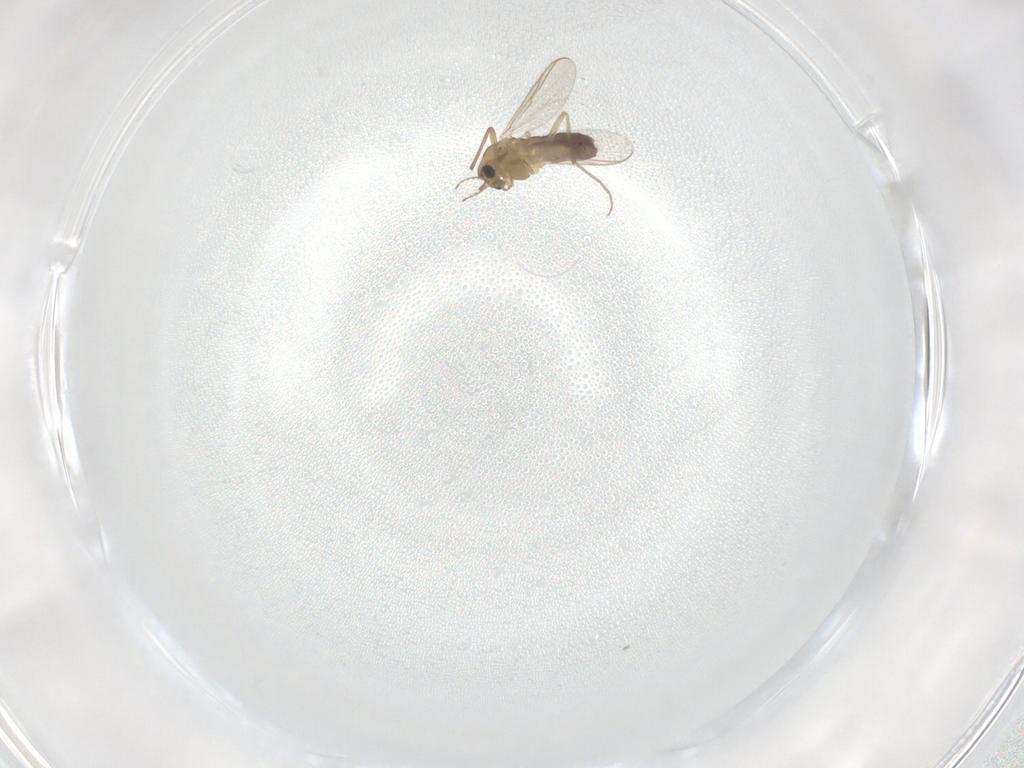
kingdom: Animalia
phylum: Arthropoda
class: Insecta
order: Diptera
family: Chironomidae
